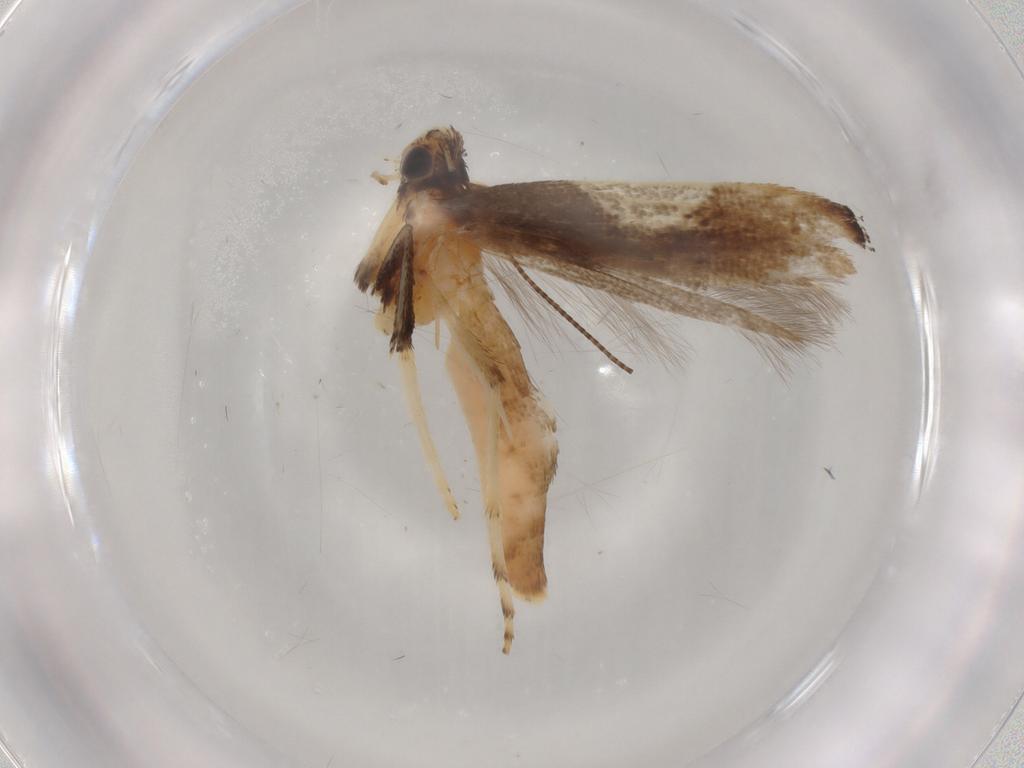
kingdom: Animalia
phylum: Arthropoda
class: Insecta
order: Lepidoptera
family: Gracillariidae
